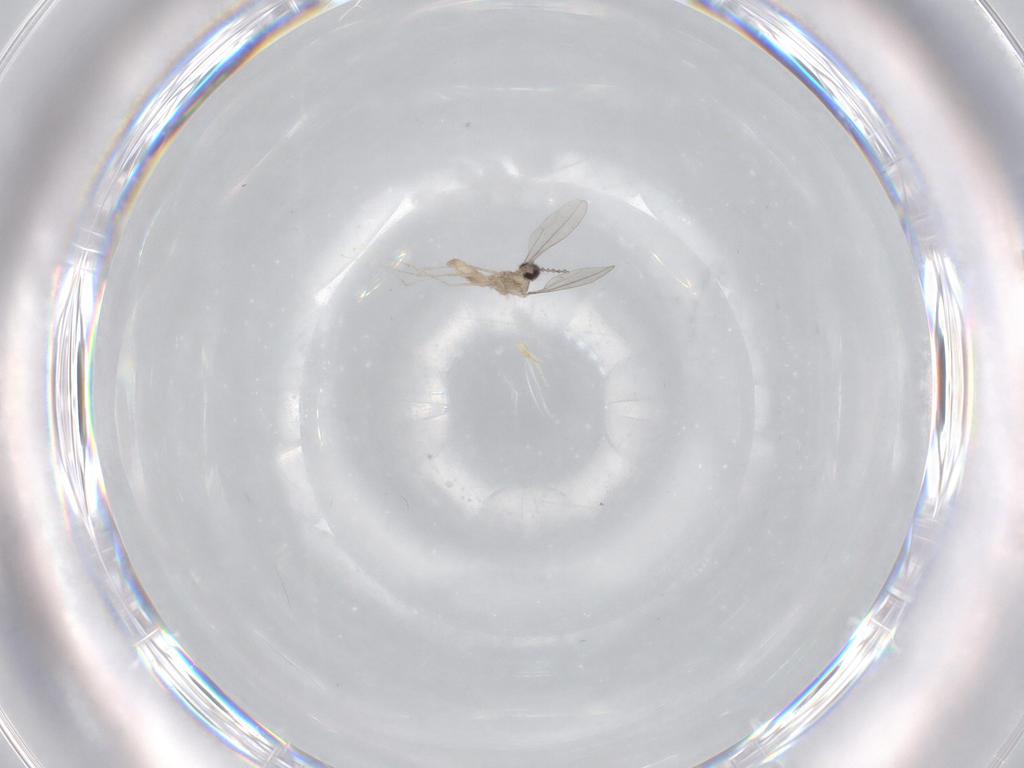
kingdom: Animalia
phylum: Arthropoda
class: Insecta
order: Diptera
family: Cecidomyiidae
